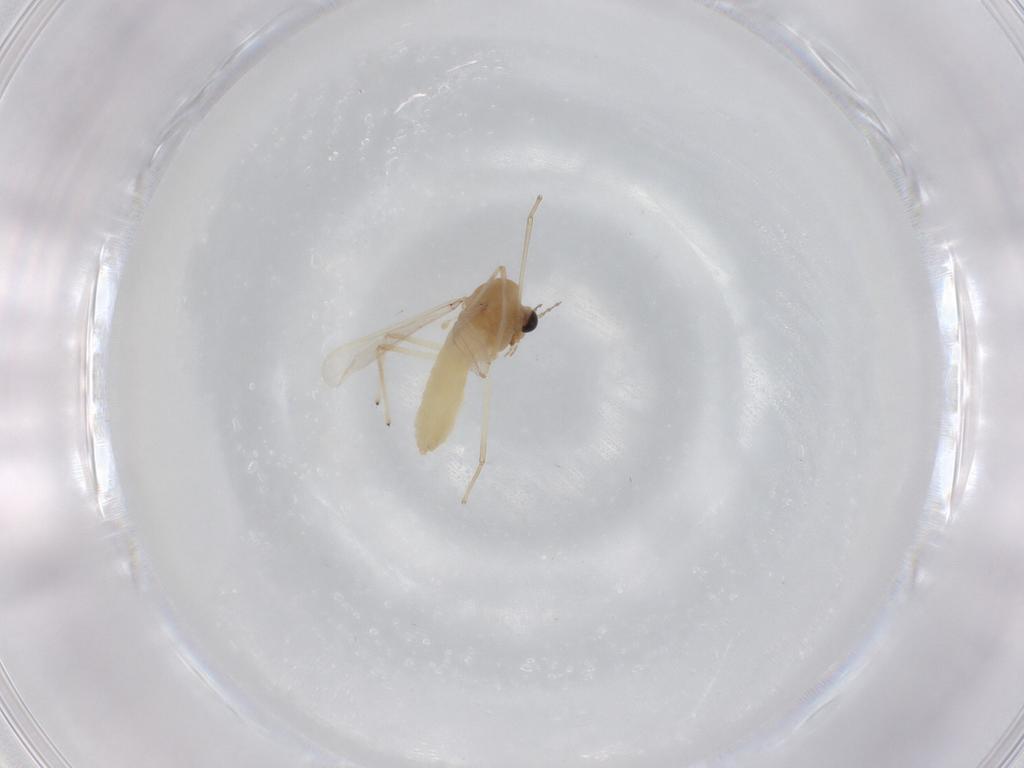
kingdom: Animalia
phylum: Arthropoda
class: Insecta
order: Diptera
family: Chironomidae
